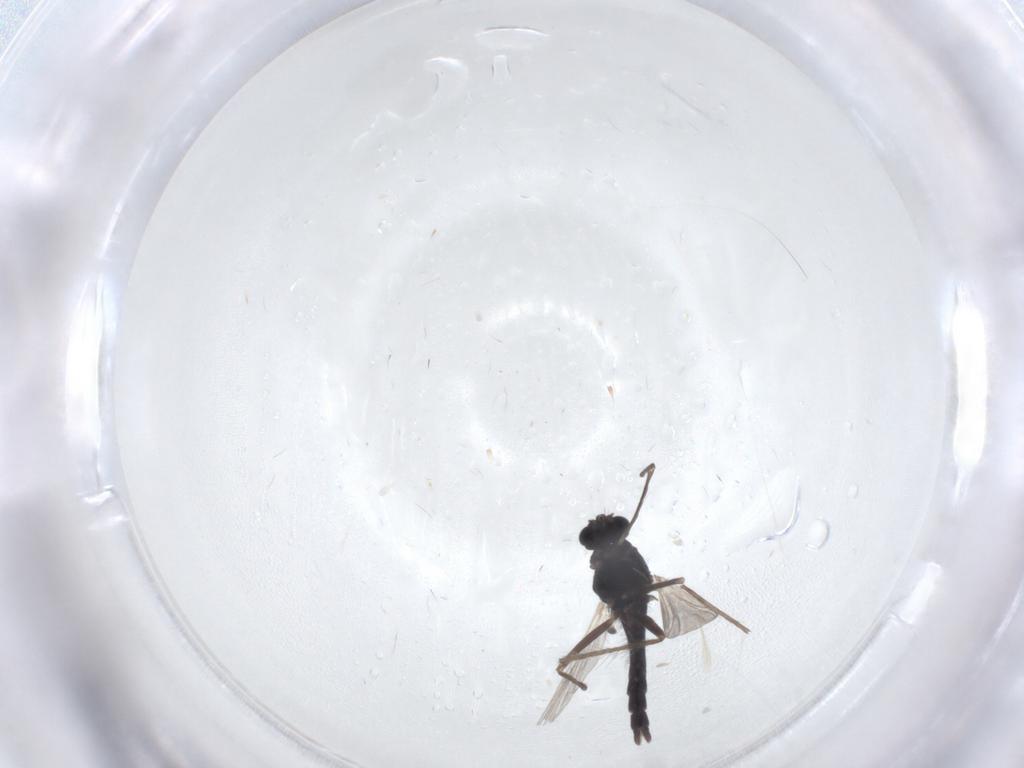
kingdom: Animalia
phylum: Arthropoda
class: Insecta
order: Diptera
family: Chironomidae
